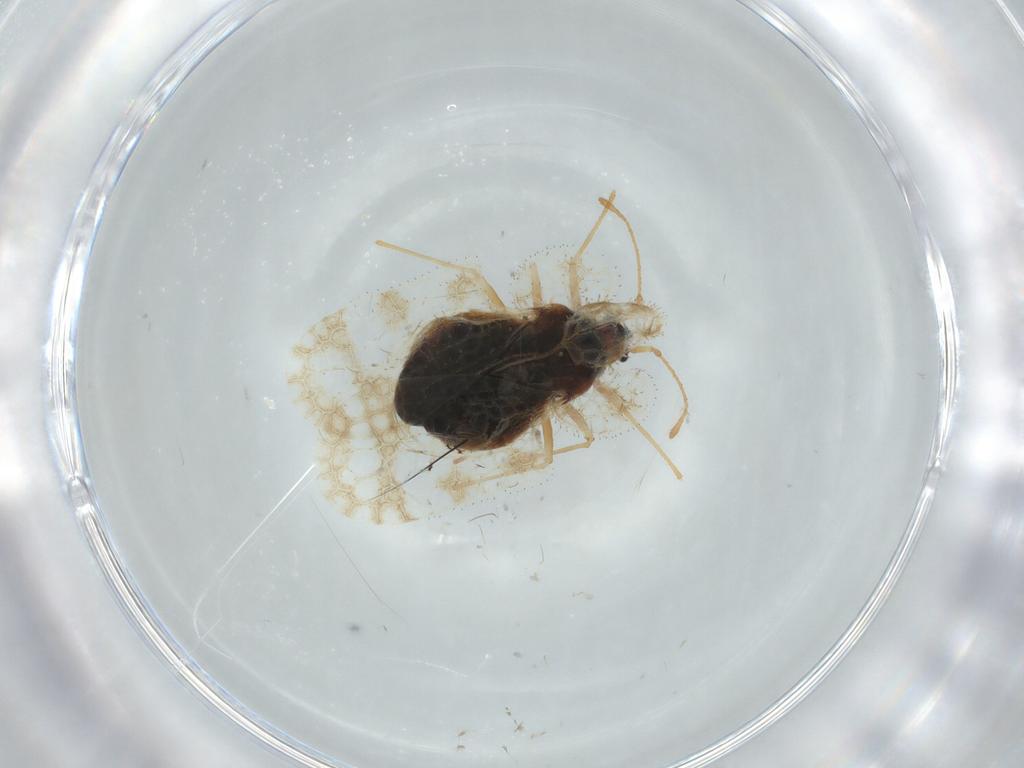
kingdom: Animalia
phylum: Arthropoda
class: Insecta
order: Hemiptera
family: Tingidae
